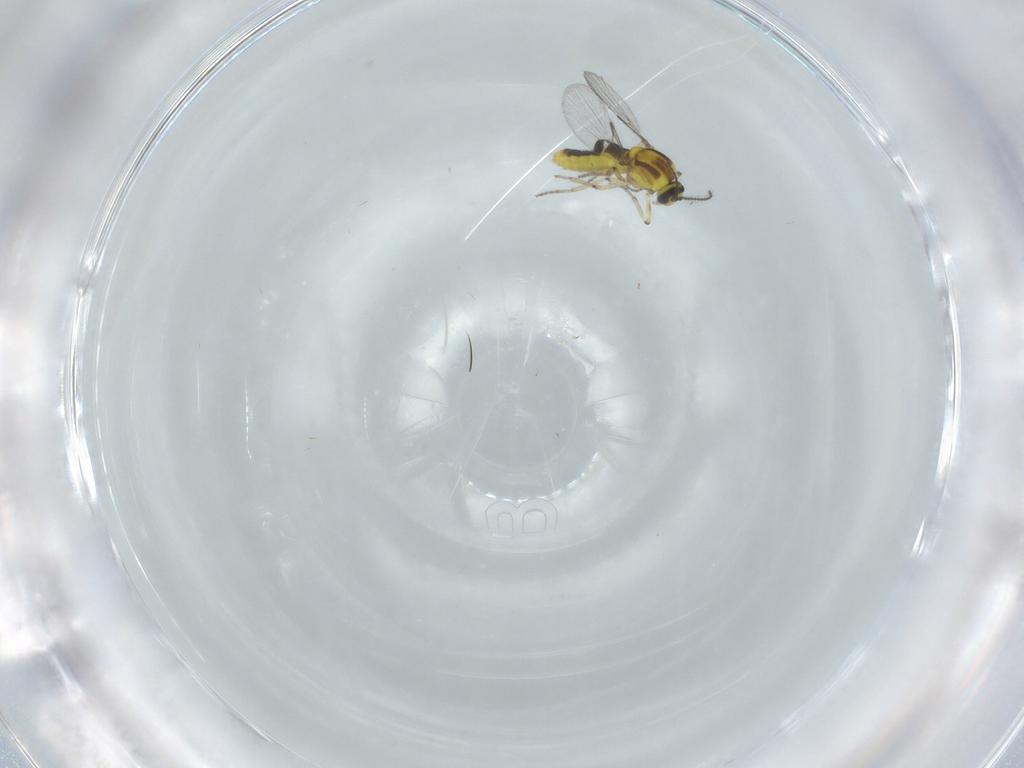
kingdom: Animalia
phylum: Arthropoda
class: Insecta
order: Diptera
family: Ceratopogonidae
